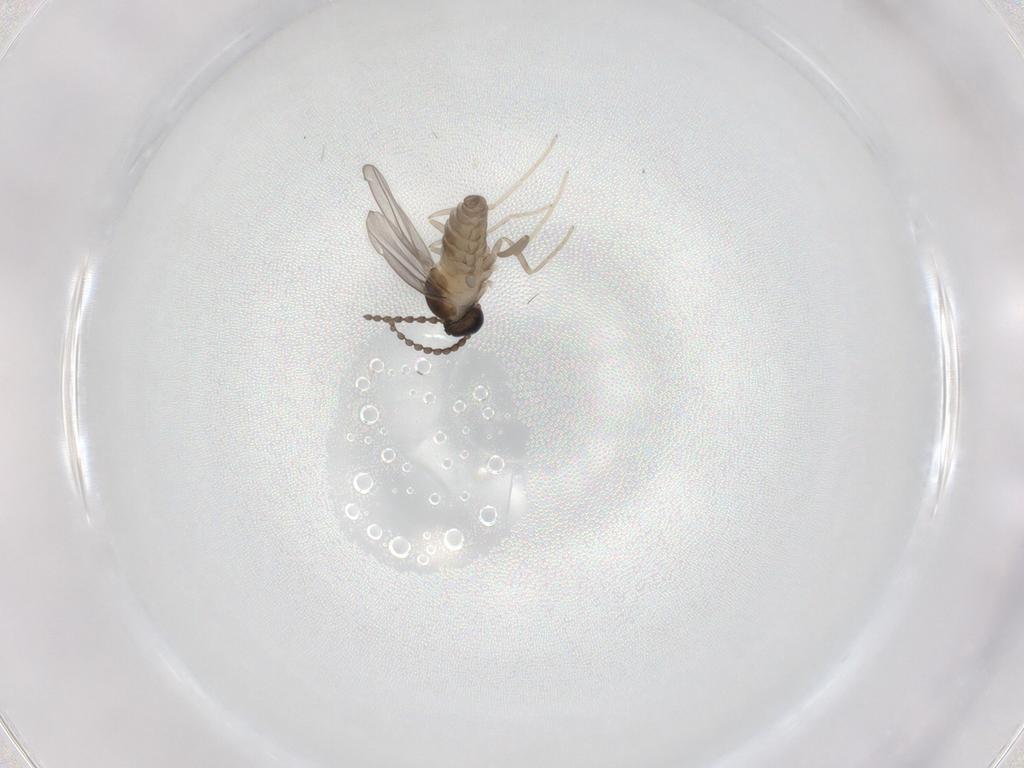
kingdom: Animalia
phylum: Arthropoda
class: Insecta
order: Diptera
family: Cecidomyiidae
